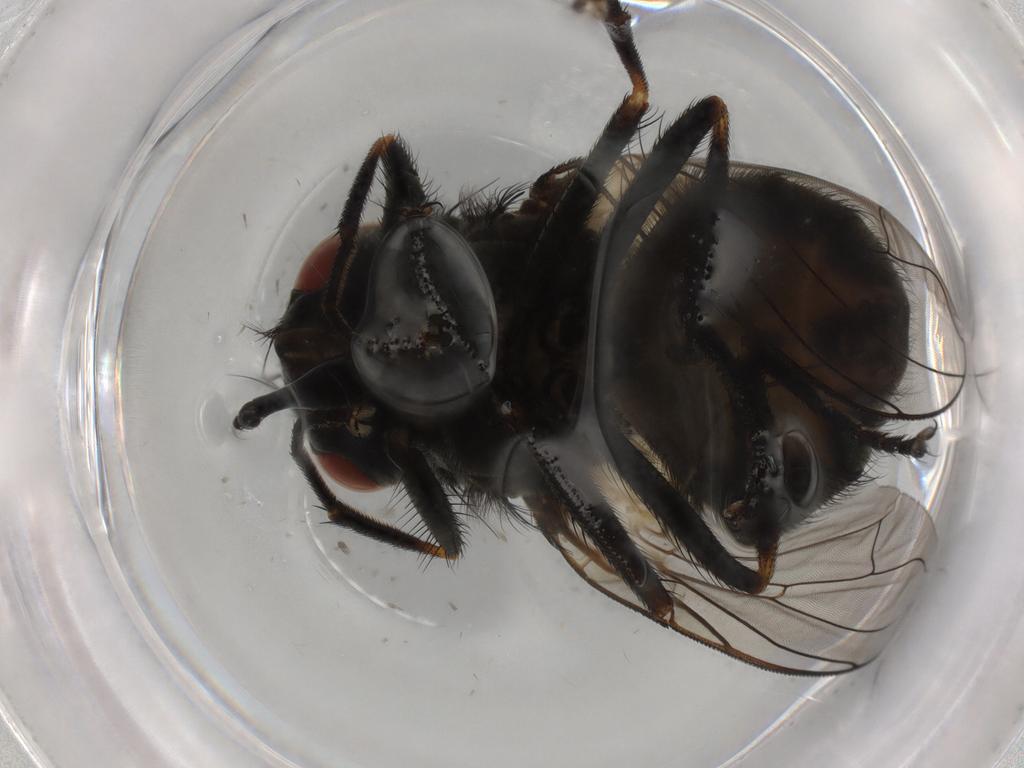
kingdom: Animalia
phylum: Arthropoda
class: Insecta
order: Diptera
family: Muscidae
